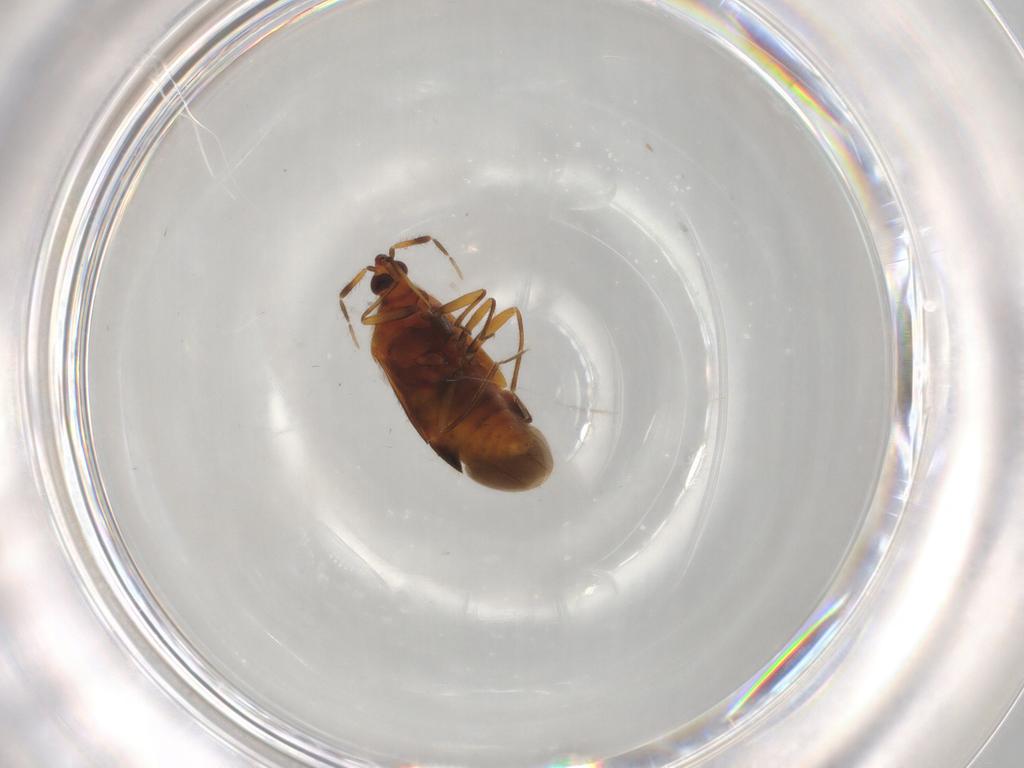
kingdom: Animalia
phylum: Arthropoda
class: Insecta
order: Hemiptera
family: Anthocoridae
